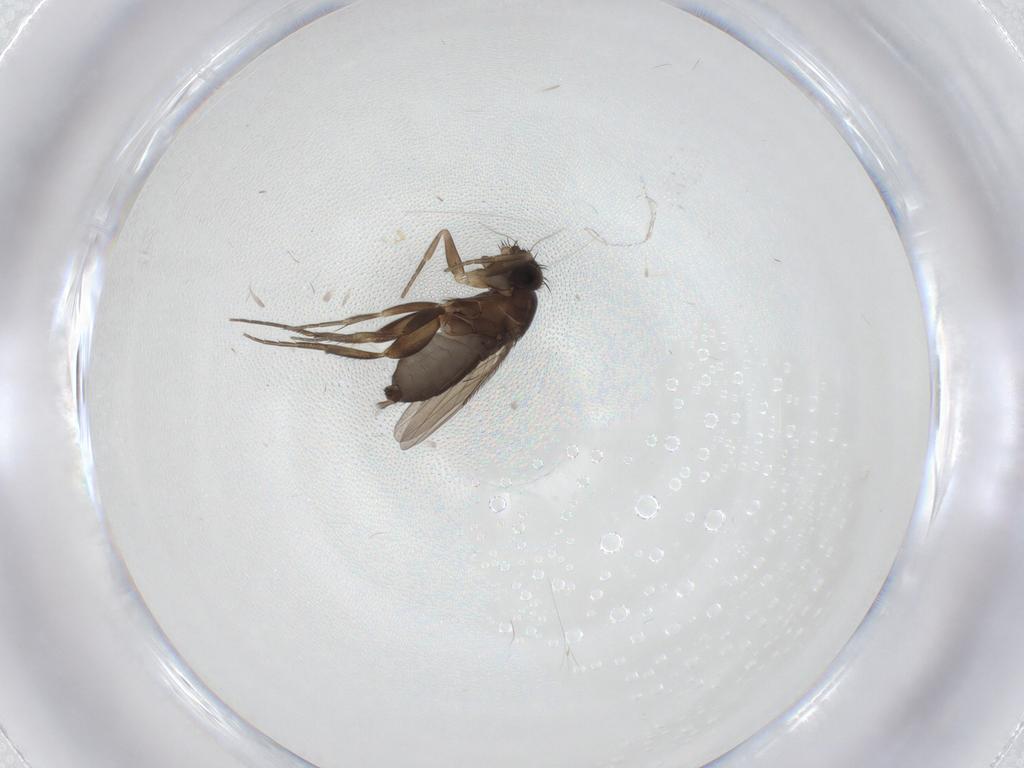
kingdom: Animalia
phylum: Arthropoda
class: Insecta
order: Diptera
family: Phoridae
